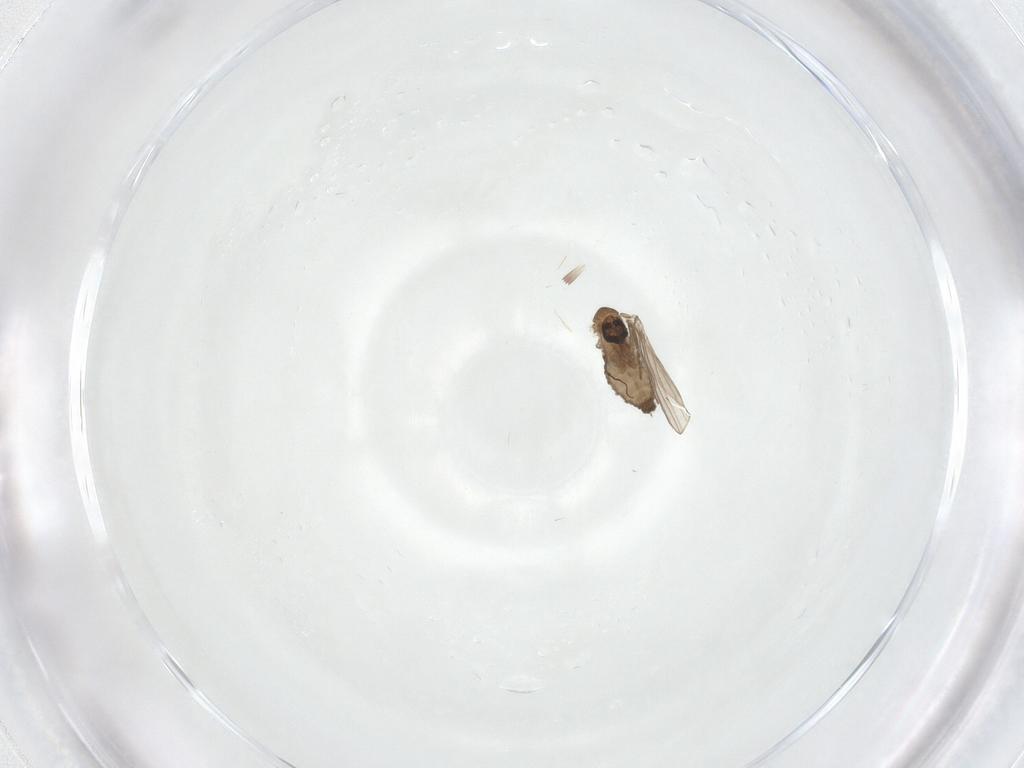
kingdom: Animalia
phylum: Arthropoda
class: Insecta
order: Diptera
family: Psychodidae
